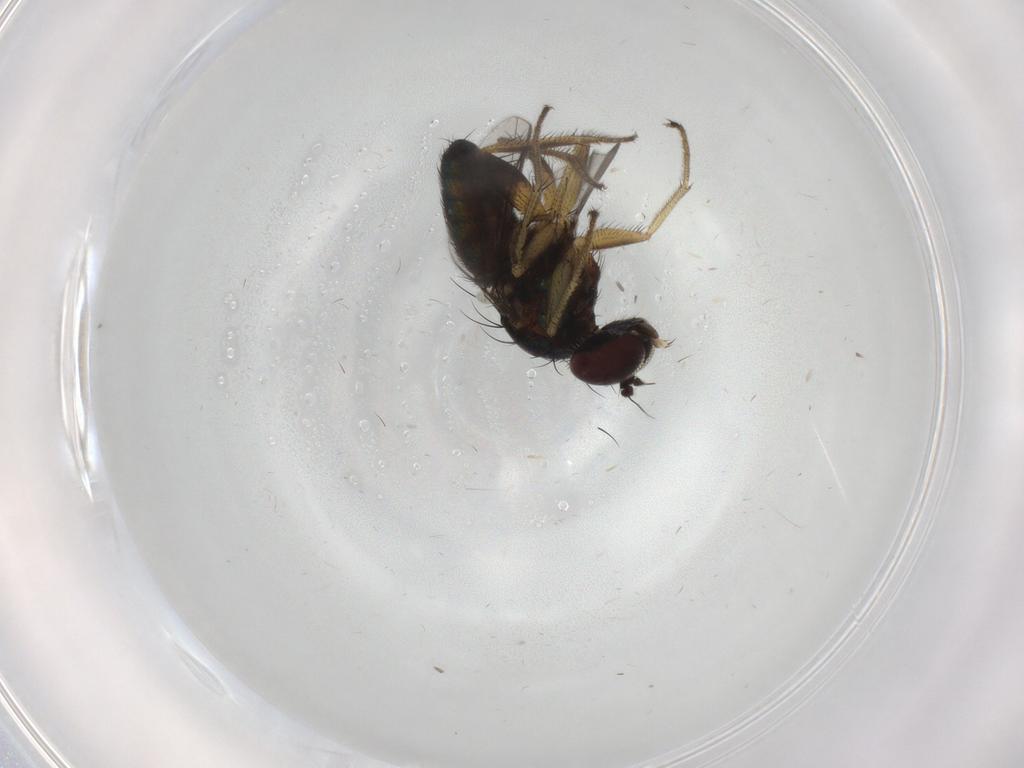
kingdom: Animalia
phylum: Arthropoda
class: Insecta
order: Diptera
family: Dolichopodidae
